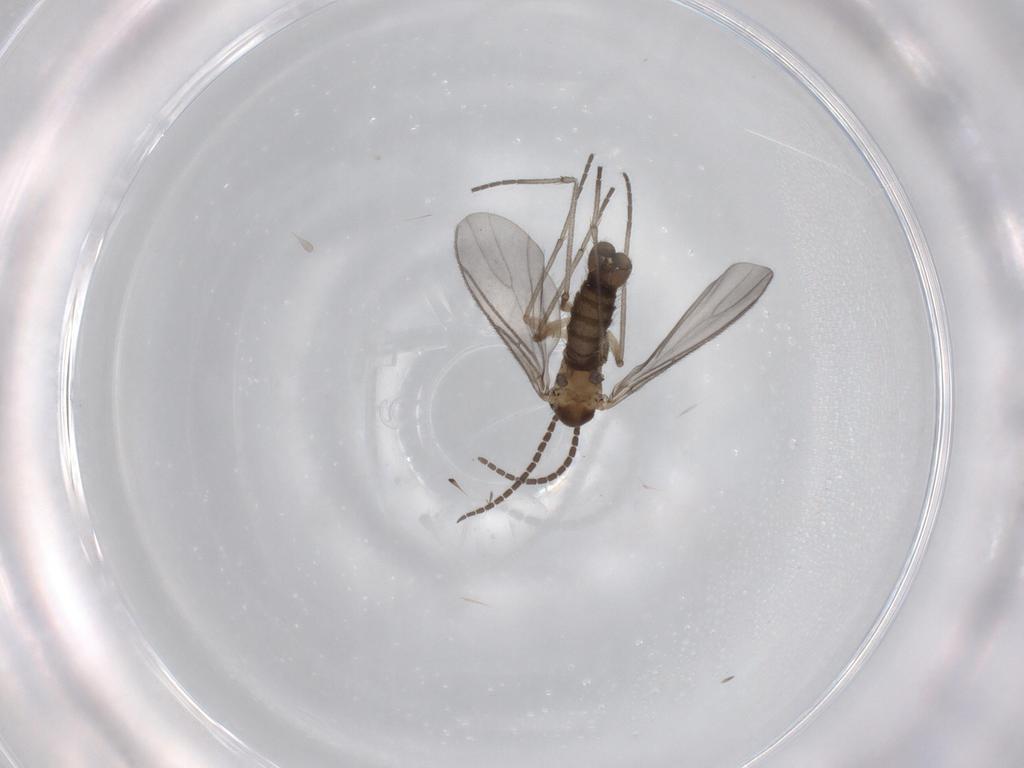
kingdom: Animalia
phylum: Arthropoda
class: Insecta
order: Diptera
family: Sciaridae
